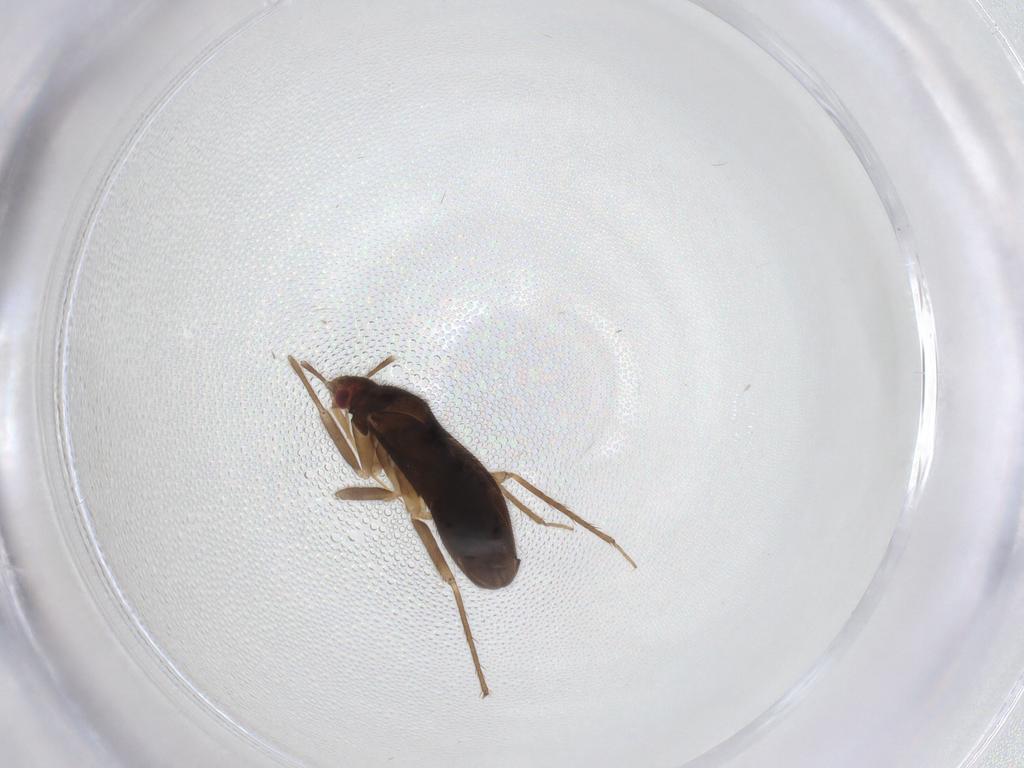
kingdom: Animalia
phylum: Arthropoda
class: Insecta
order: Hemiptera
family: Ceratocombidae
